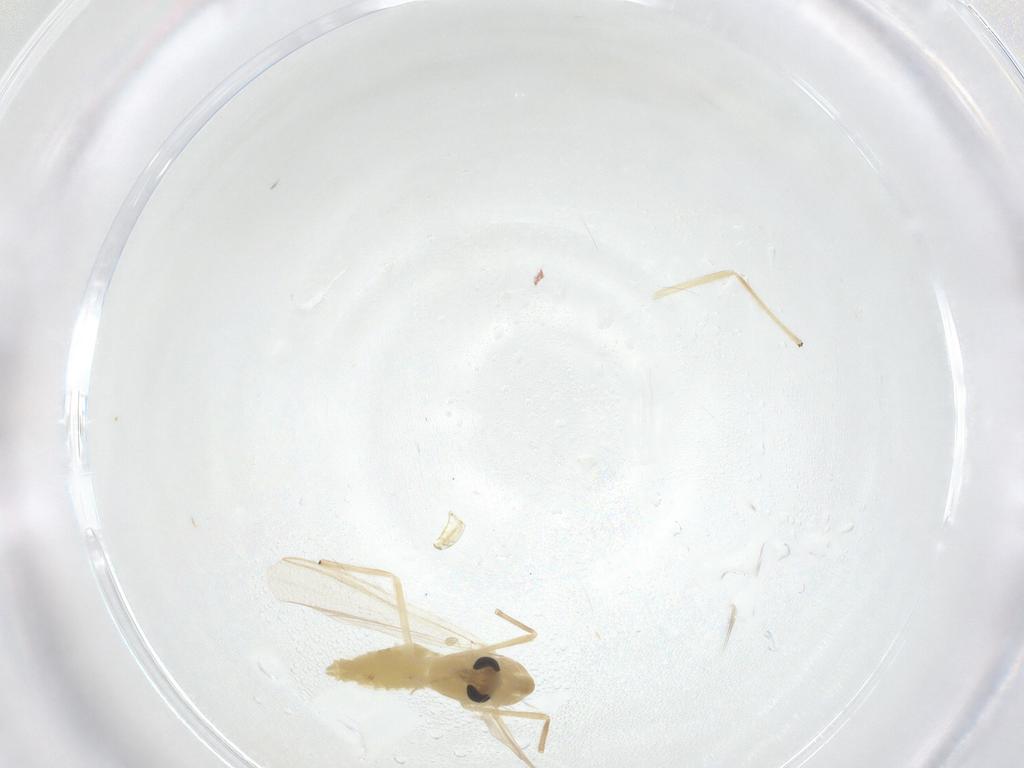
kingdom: Animalia
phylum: Arthropoda
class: Insecta
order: Diptera
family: Chironomidae
